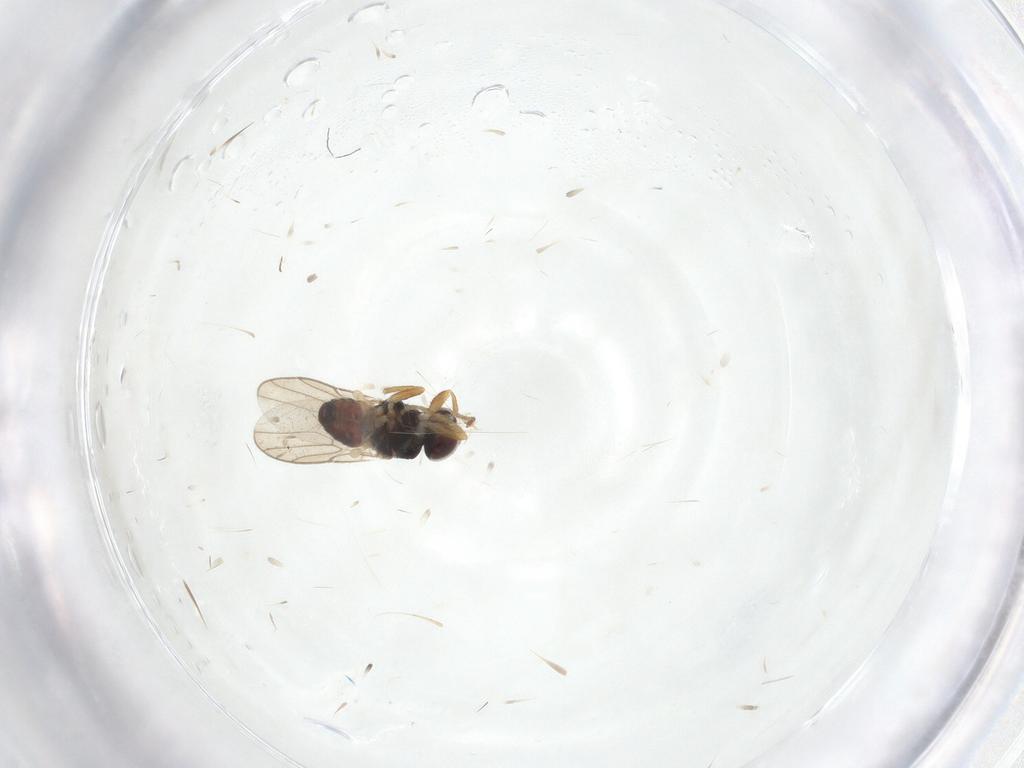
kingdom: Animalia
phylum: Arthropoda
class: Insecta
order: Diptera
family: Chloropidae
